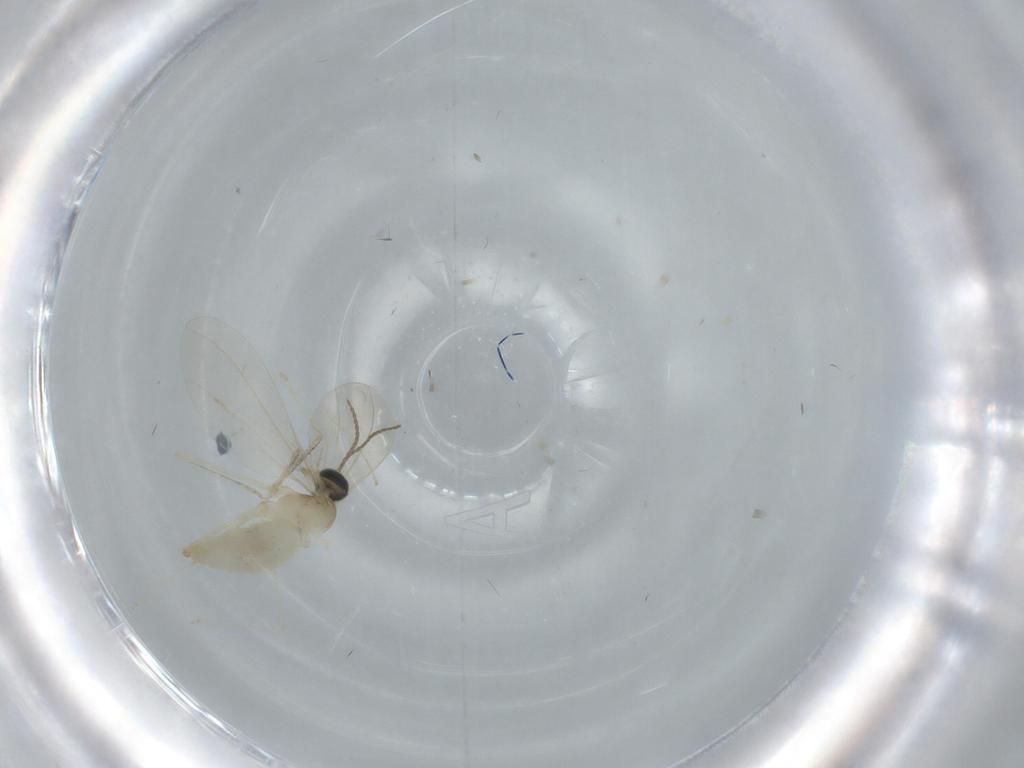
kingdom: Animalia
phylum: Arthropoda
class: Insecta
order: Diptera
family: Cecidomyiidae
